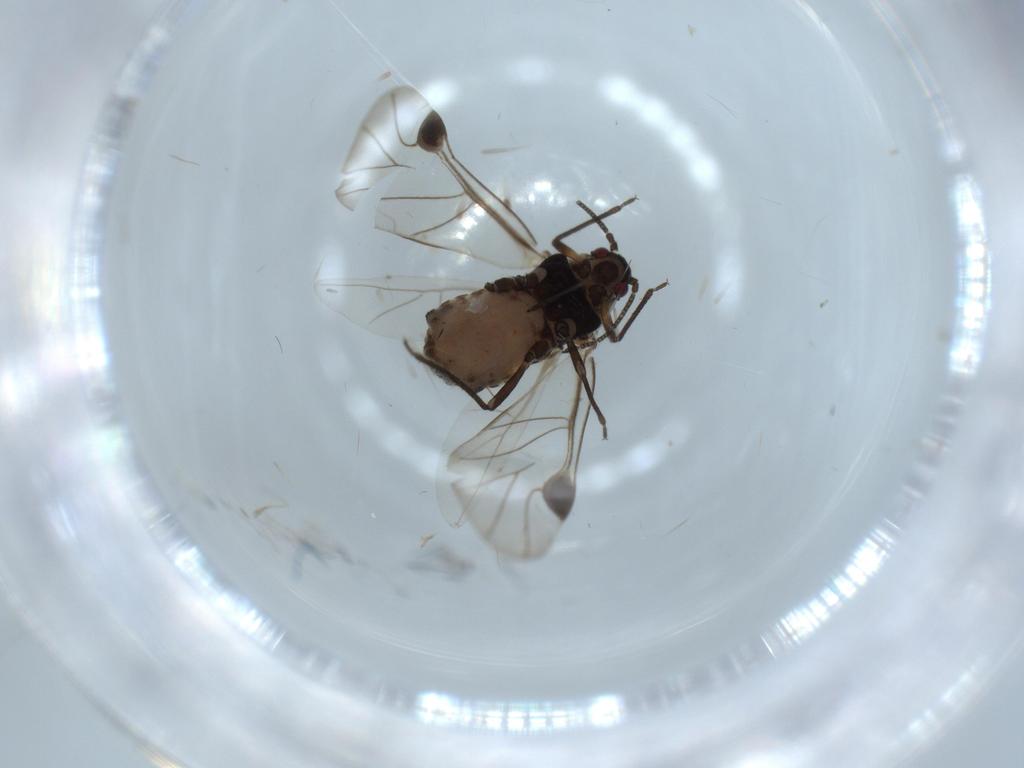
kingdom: Animalia
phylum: Arthropoda
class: Insecta
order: Hemiptera
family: Aphididae
